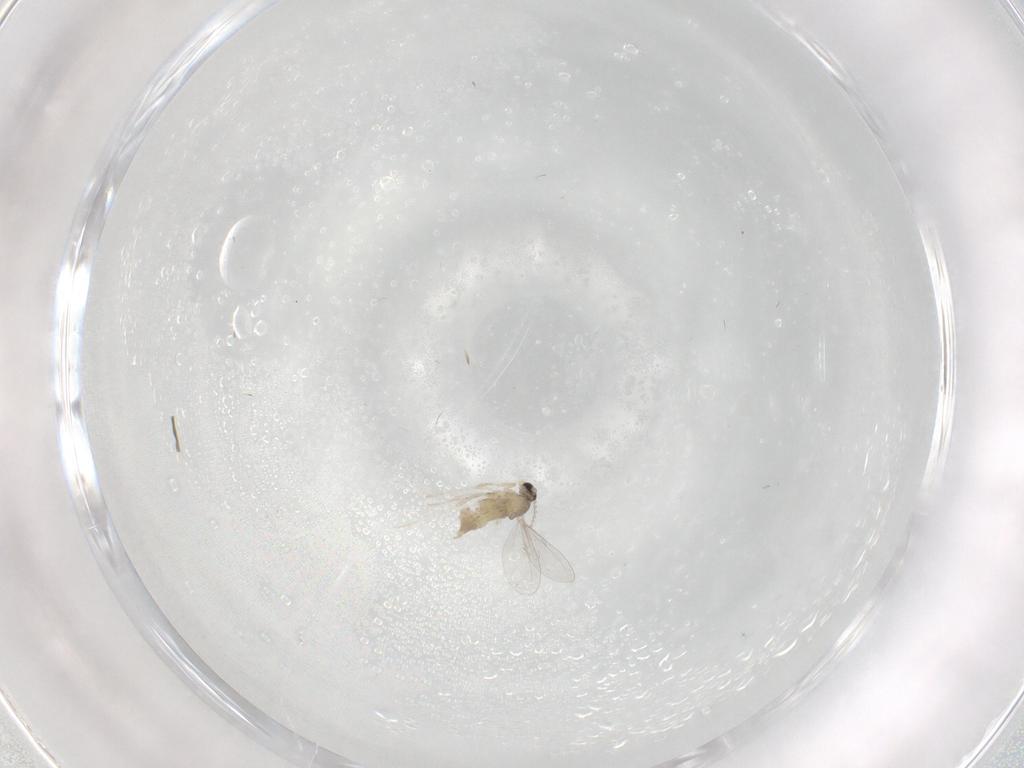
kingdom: Animalia
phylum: Arthropoda
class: Insecta
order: Diptera
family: Cecidomyiidae
